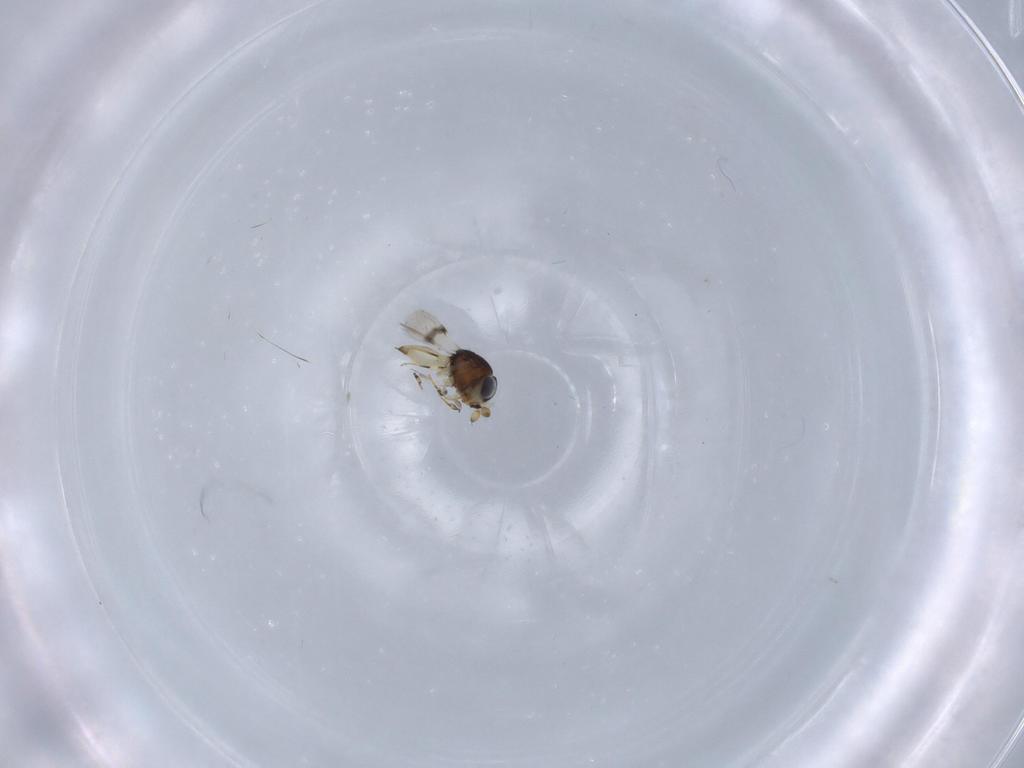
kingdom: Animalia
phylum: Arthropoda
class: Insecta
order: Hymenoptera
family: Scelionidae
